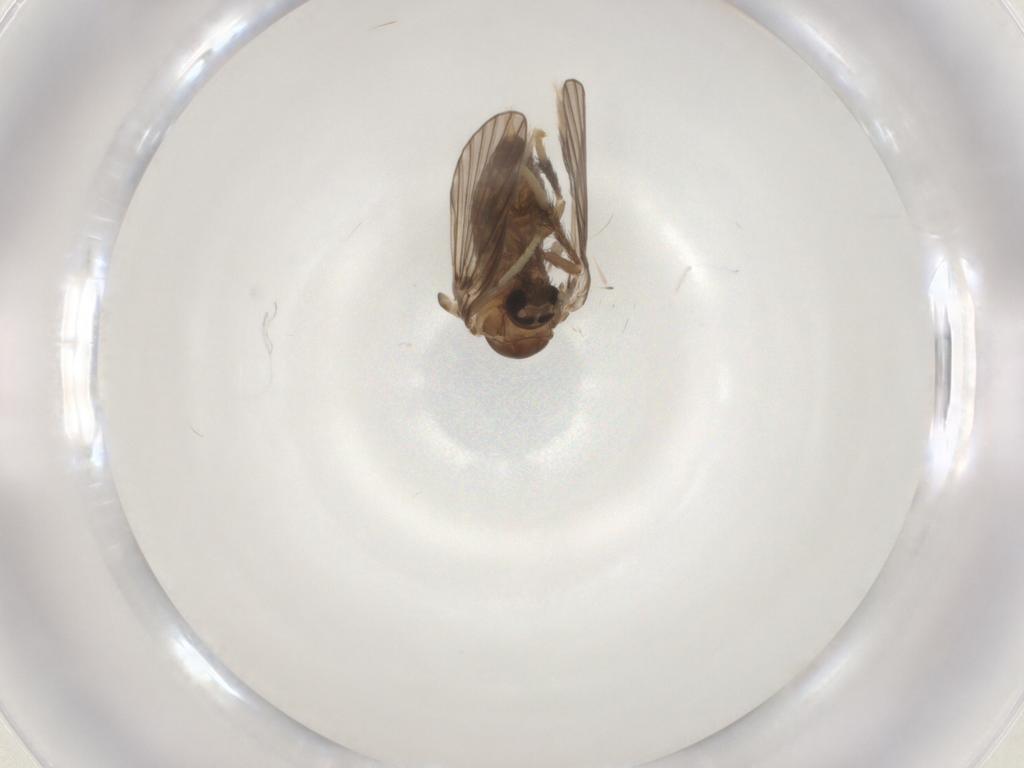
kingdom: Animalia
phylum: Arthropoda
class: Insecta
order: Diptera
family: Psychodidae
